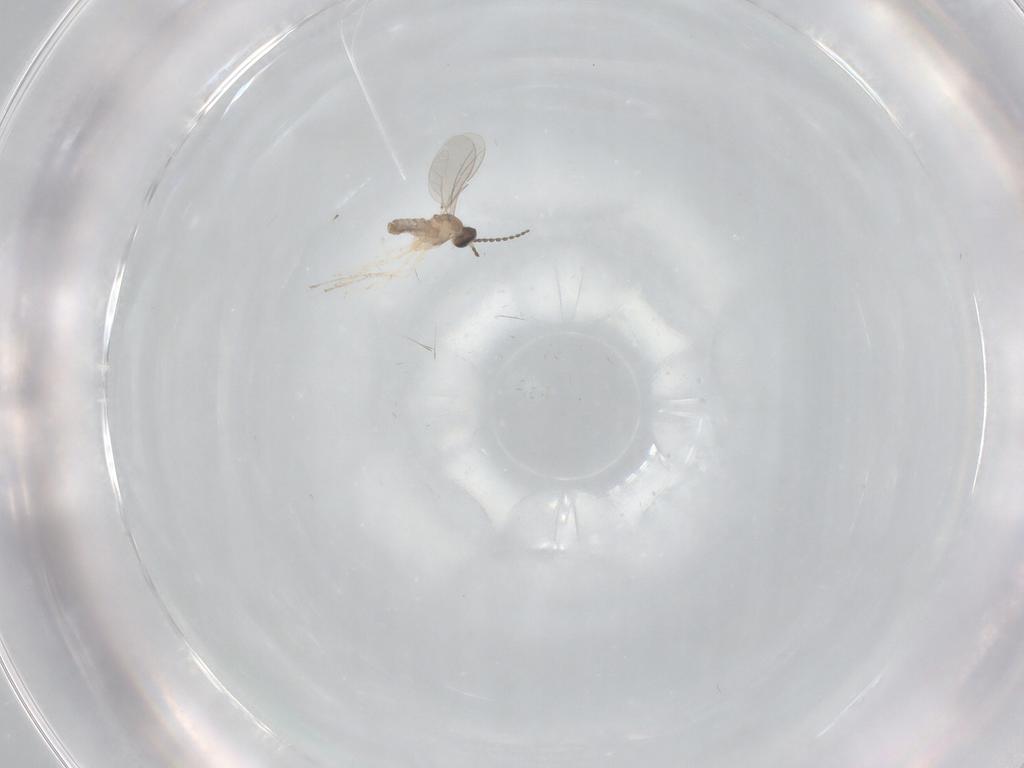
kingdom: Animalia
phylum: Arthropoda
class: Insecta
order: Diptera
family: Cecidomyiidae
